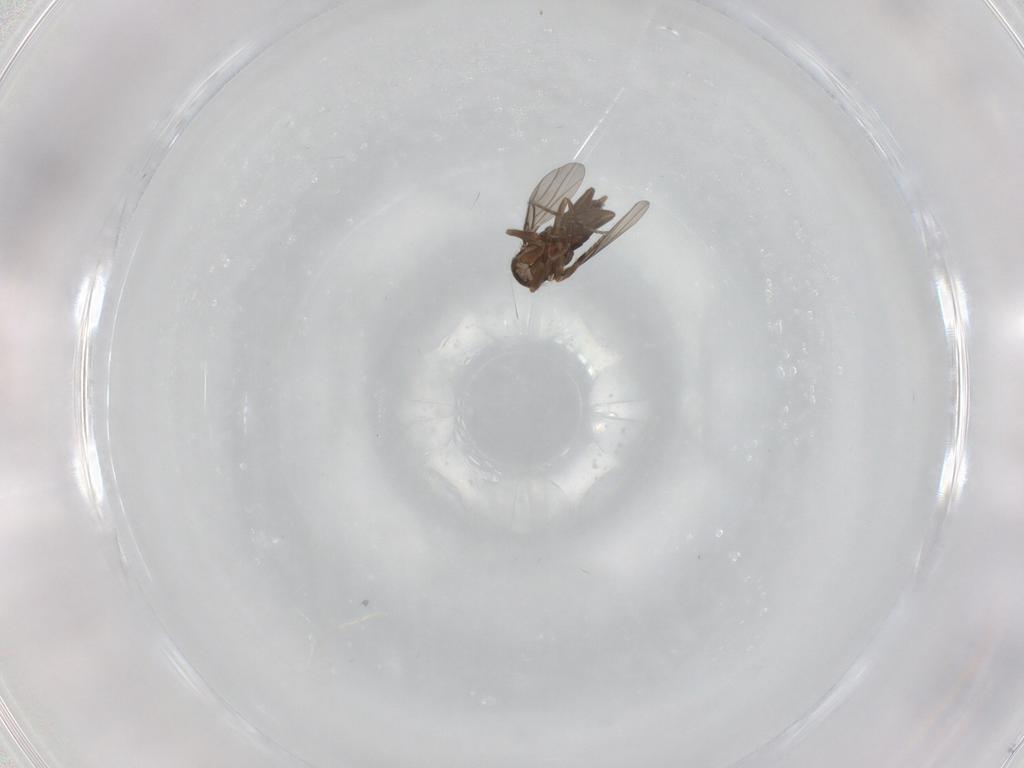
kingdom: Animalia
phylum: Arthropoda
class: Insecta
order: Diptera
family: Phoridae
